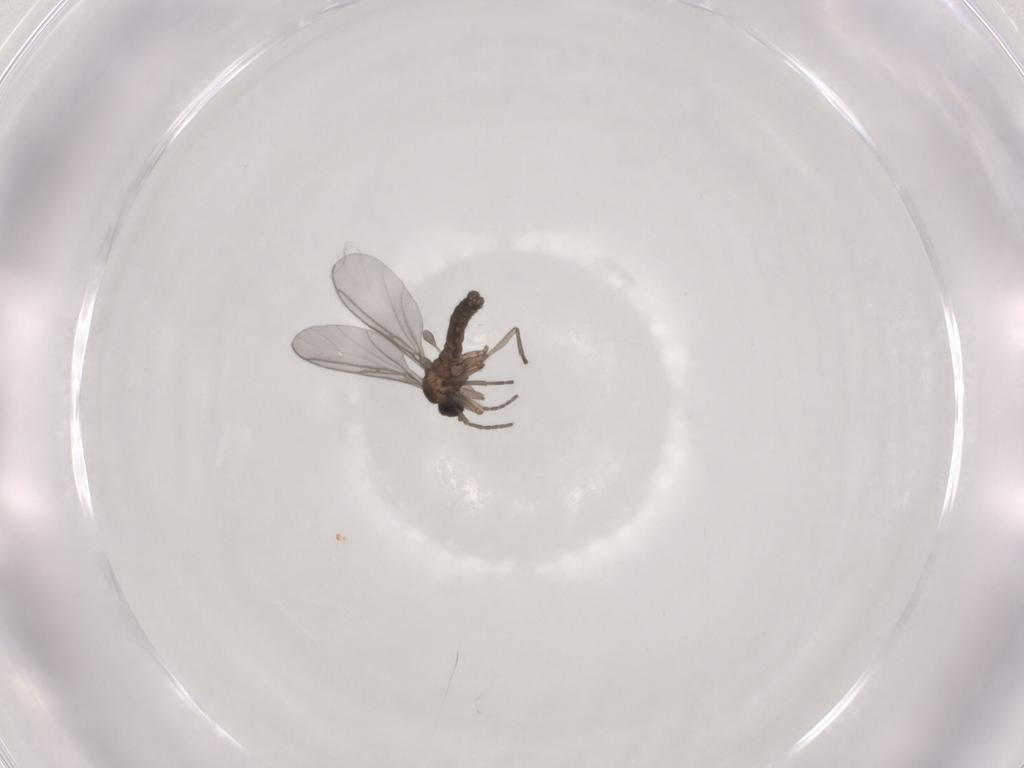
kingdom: Animalia
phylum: Arthropoda
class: Insecta
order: Diptera
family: Sciaridae
